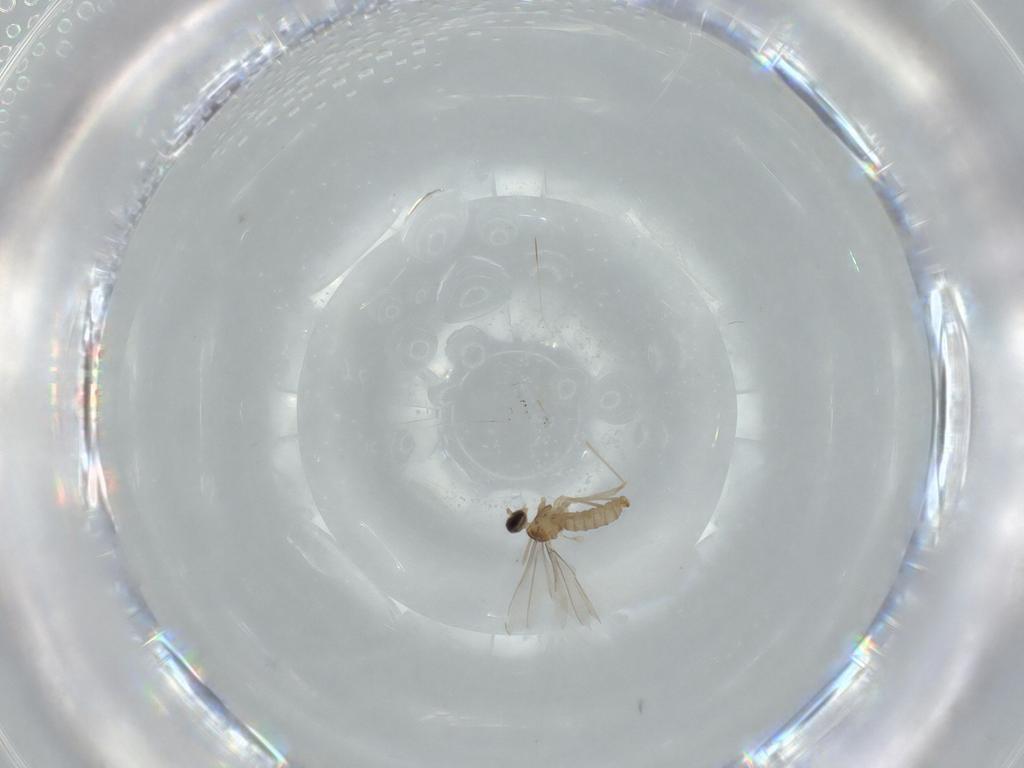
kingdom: Animalia
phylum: Arthropoda
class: Insecta
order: Diptera
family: Cecidomyiidae
